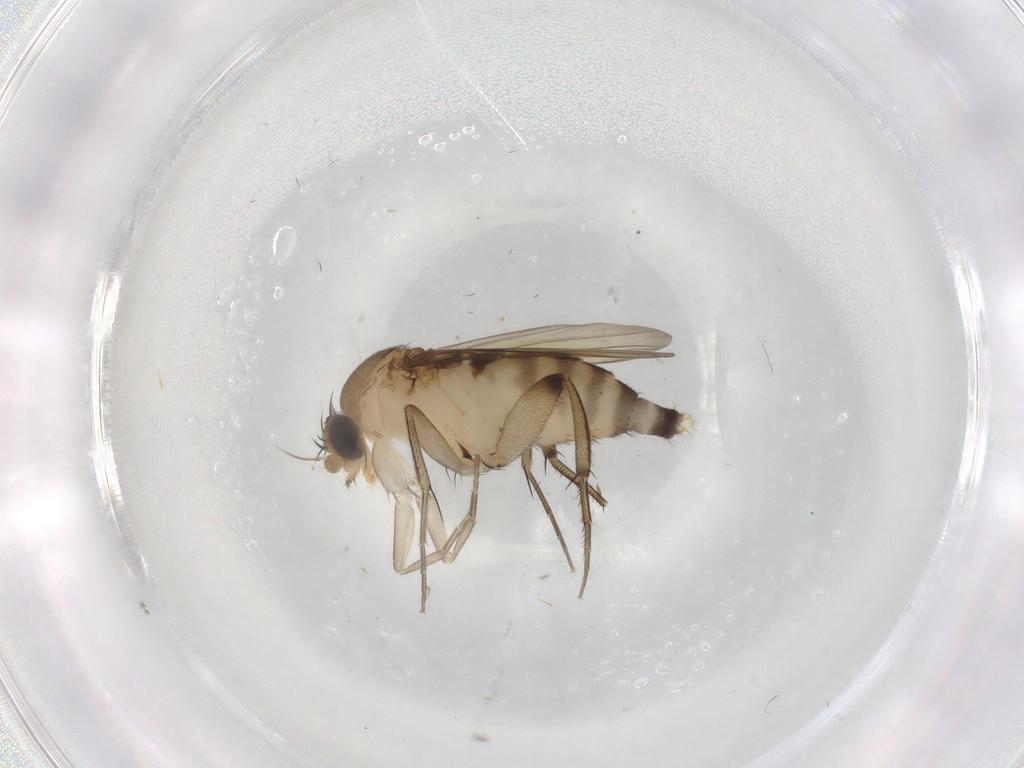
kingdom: Animalia
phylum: Arthropoda
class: Insecta
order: Diptera
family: Phoridae
